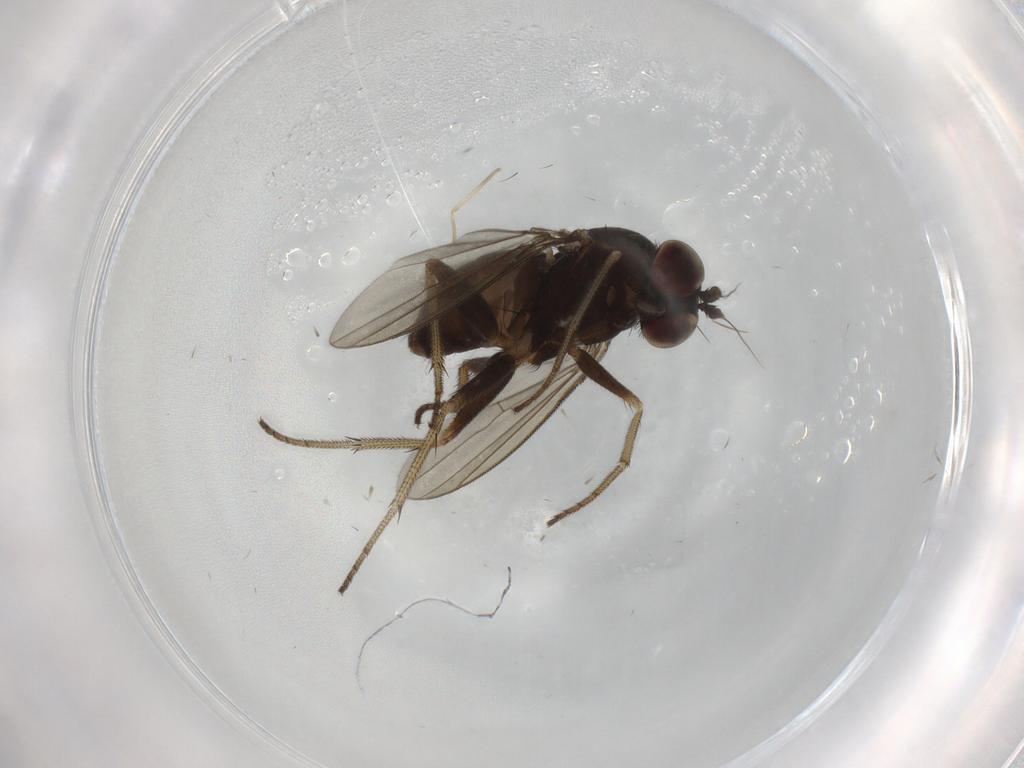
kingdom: Animalia
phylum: Arthropoda
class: Insecta
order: Diptera
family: Dolichopodidae
